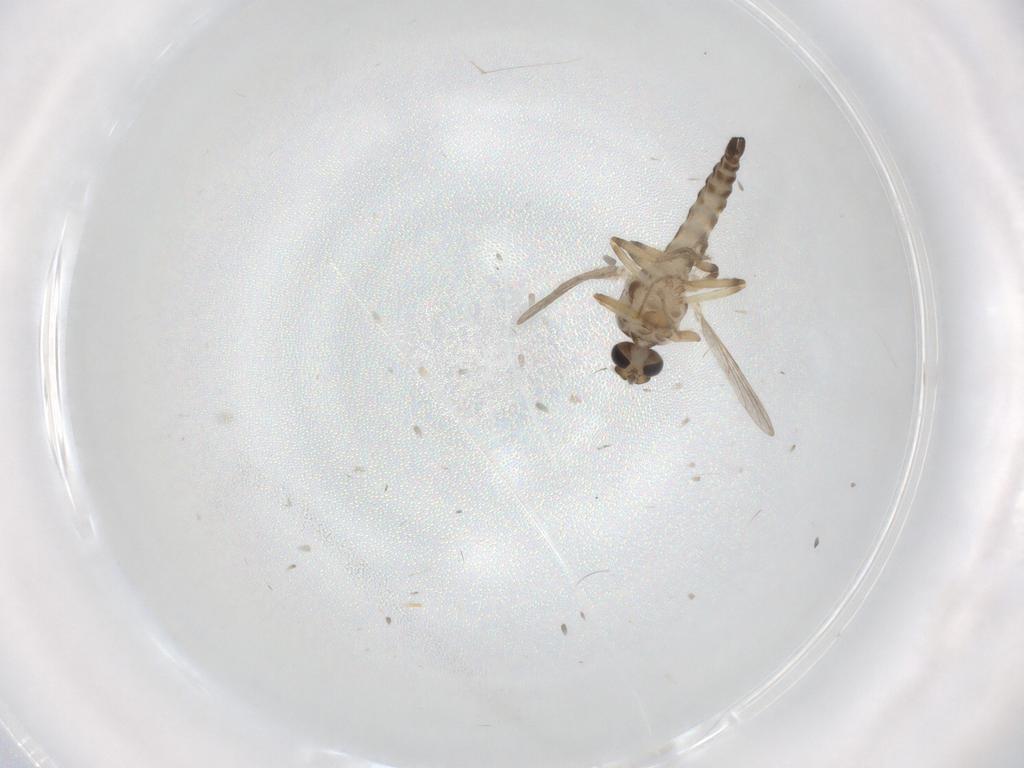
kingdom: Animalia
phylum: Arthropoda
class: Insecta
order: Diptera
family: Ceratopogonidae
